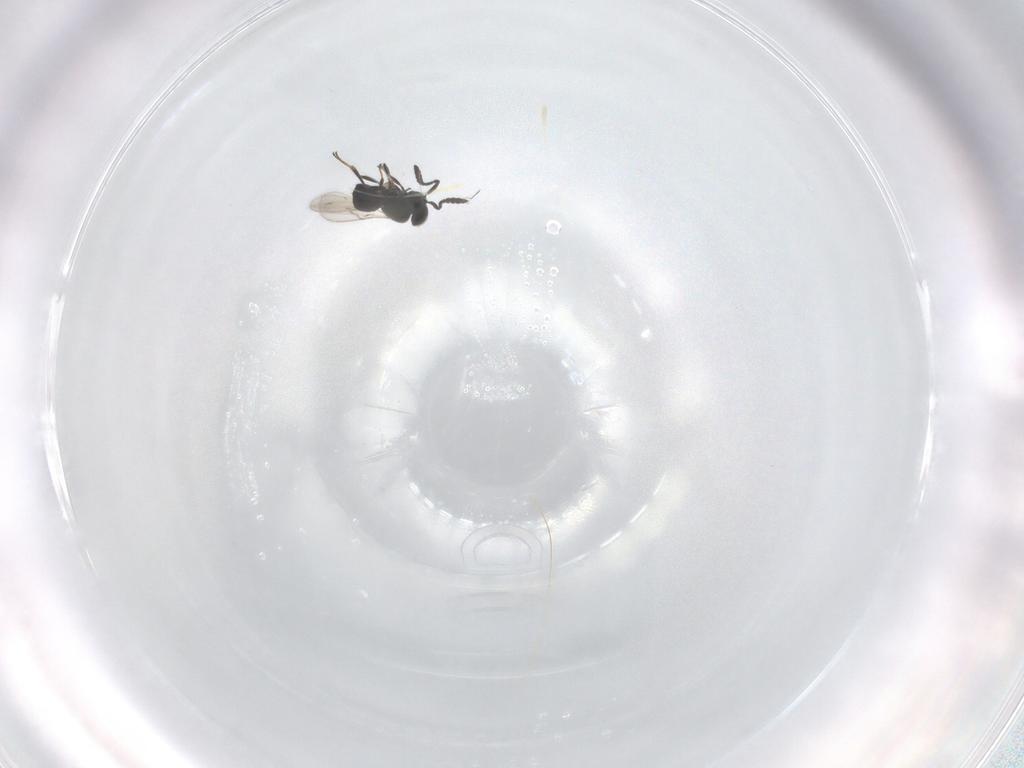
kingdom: Animalia
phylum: Arthropoda
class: Insecta
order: Hymenoptera
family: Scelionidae
